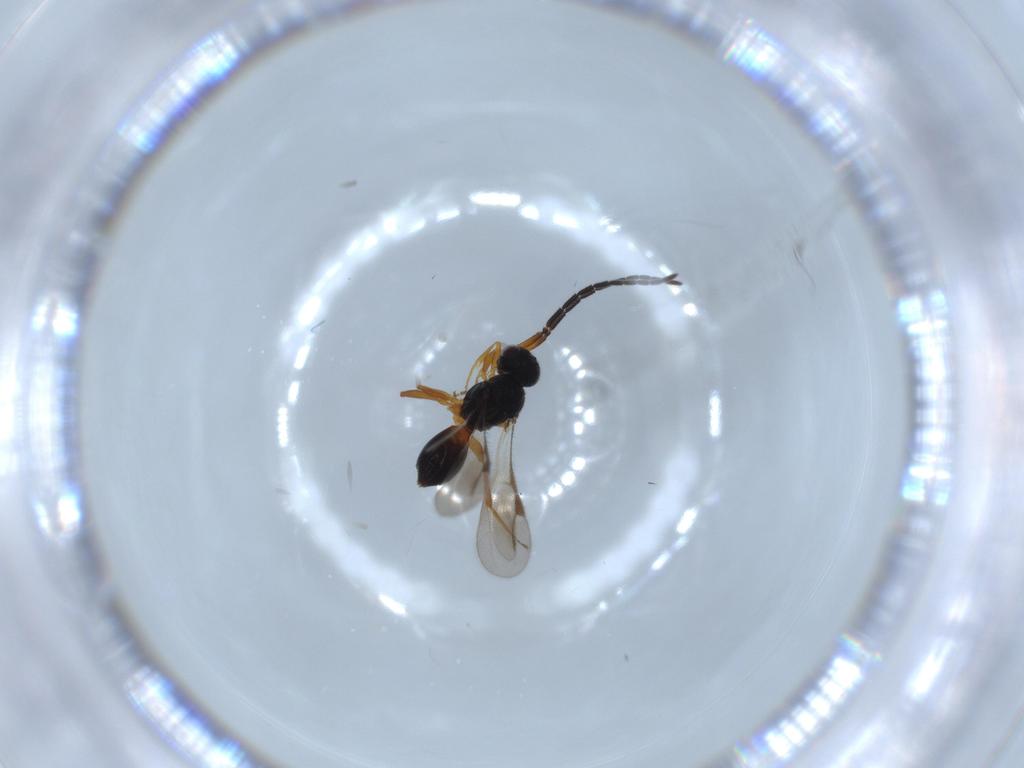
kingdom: Animalia
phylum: Arthropoda
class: Insecta
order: Hymenoptera
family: Megaspilidae
